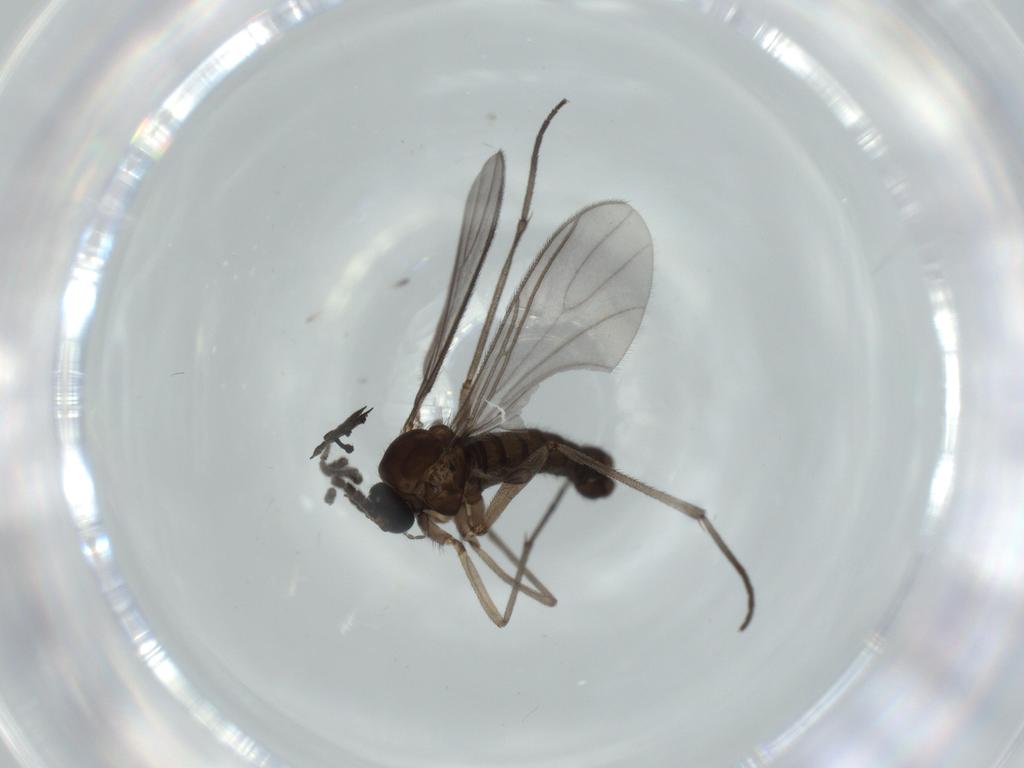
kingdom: Animalia
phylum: Arthropoda
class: Insecta
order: Diptera
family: Sciaridae
